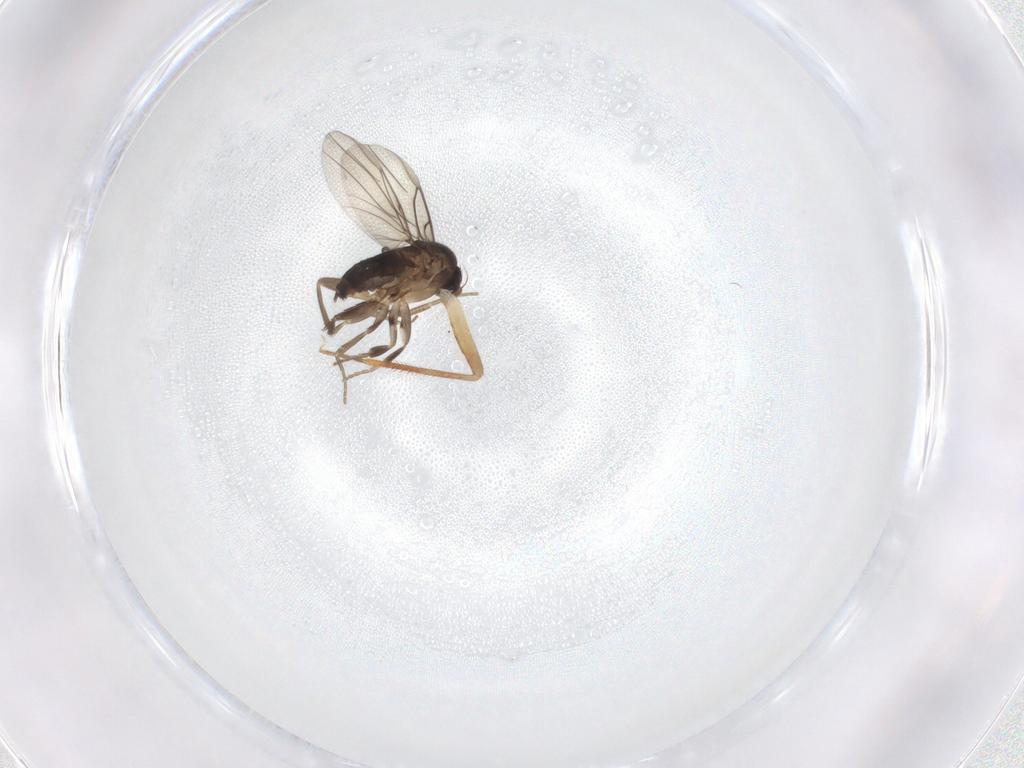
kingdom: Animalia
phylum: Arthropoda
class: Insecta
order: Diptera
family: Phoridae
